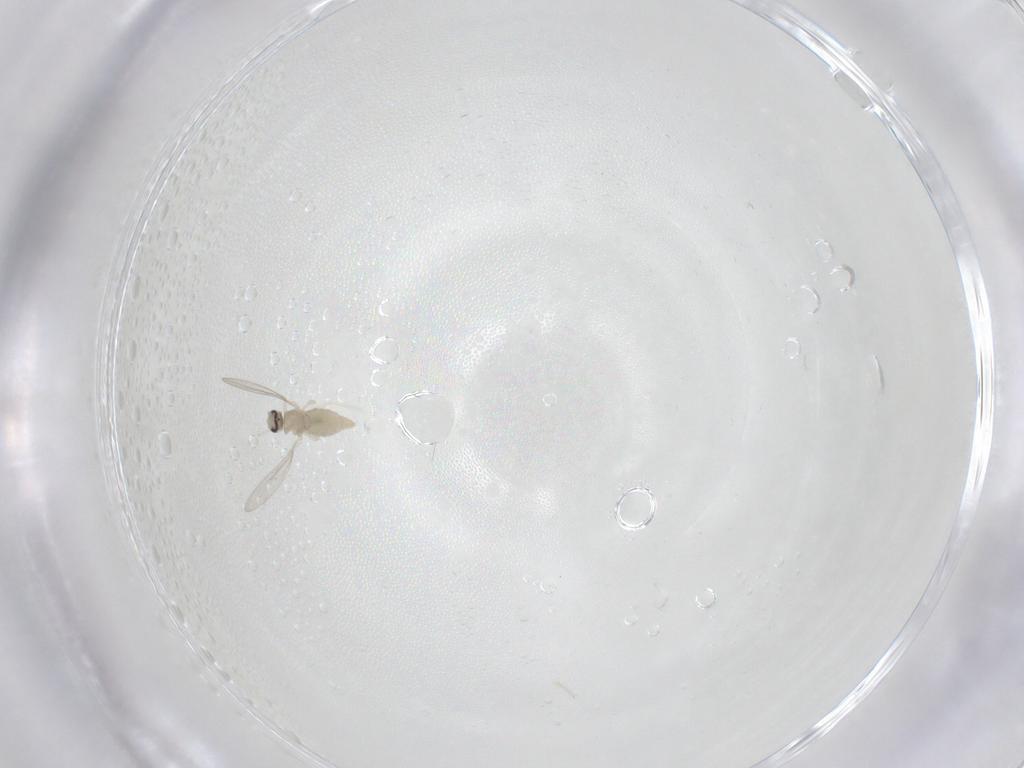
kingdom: Animalia
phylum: Arthropoda
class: Insecta
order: Diptera
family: Cecidomyiidae
